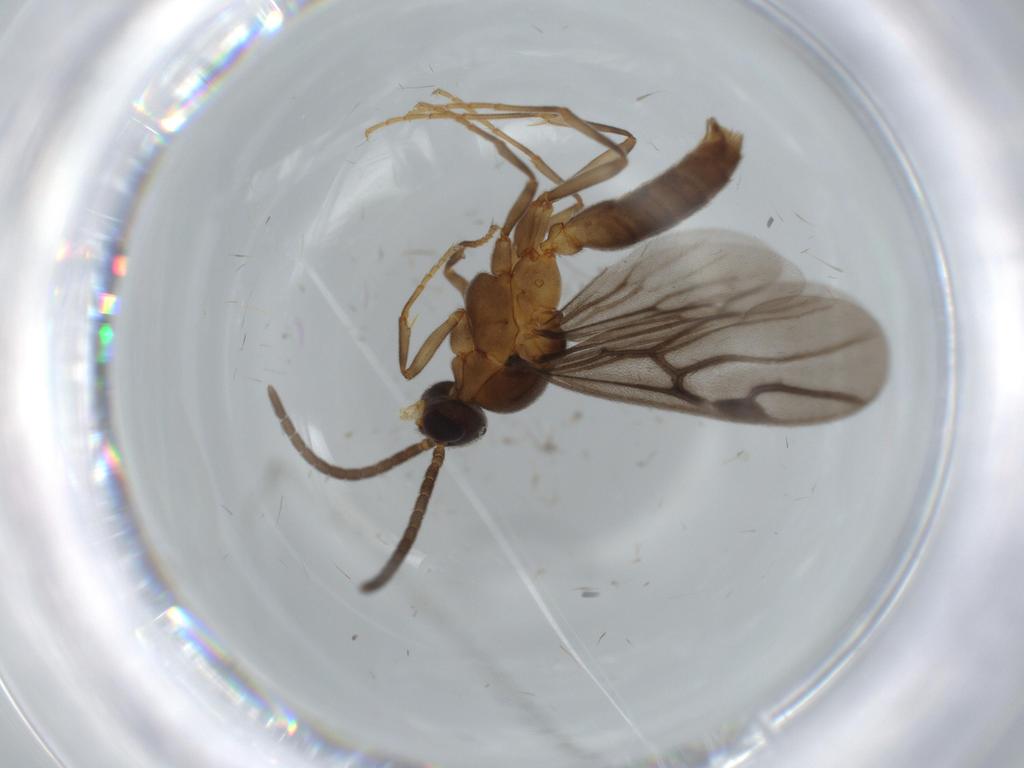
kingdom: Animalia
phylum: Arthropoda
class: Insecta
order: Hymenoptera
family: Formicidae
